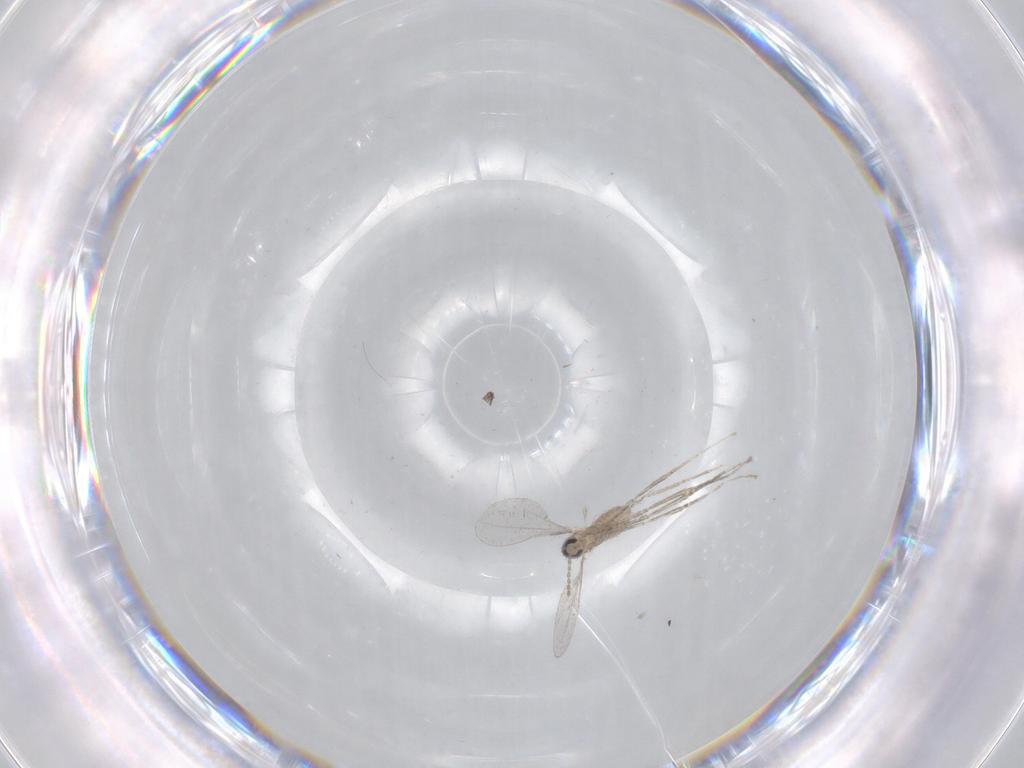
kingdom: Animalia
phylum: Arthropoda
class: Insecta
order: Diptera
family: Phoridae
